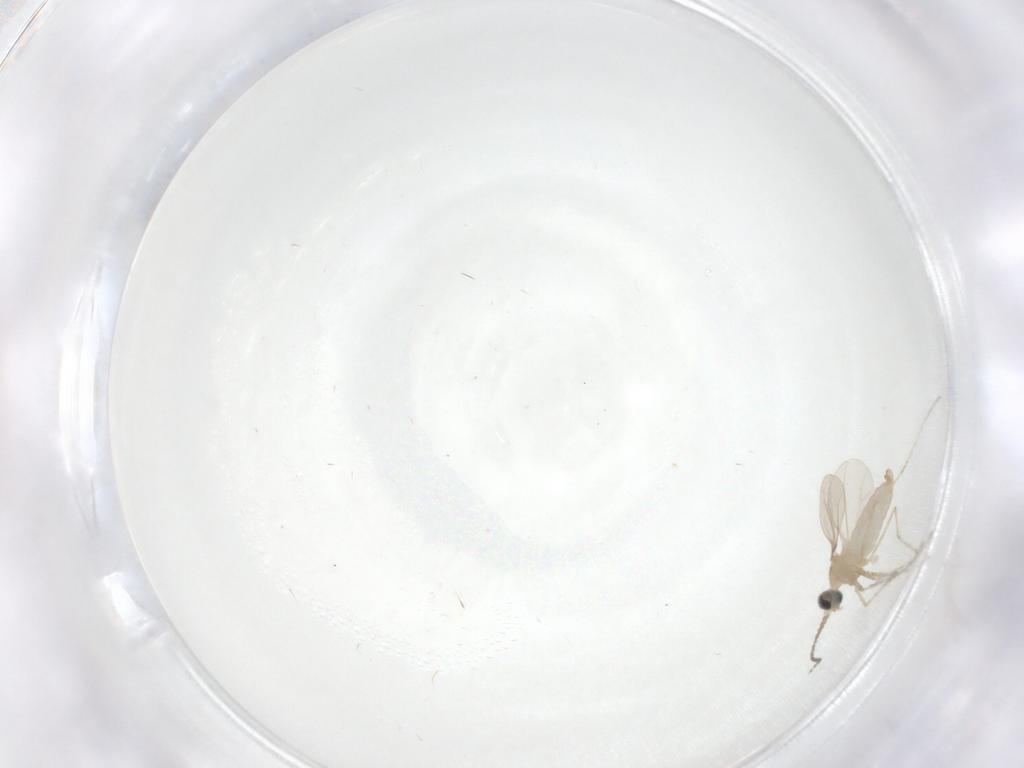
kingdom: Animalia
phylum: Arthropoda
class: Insecta
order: Diptera
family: Cecidomyiidae
